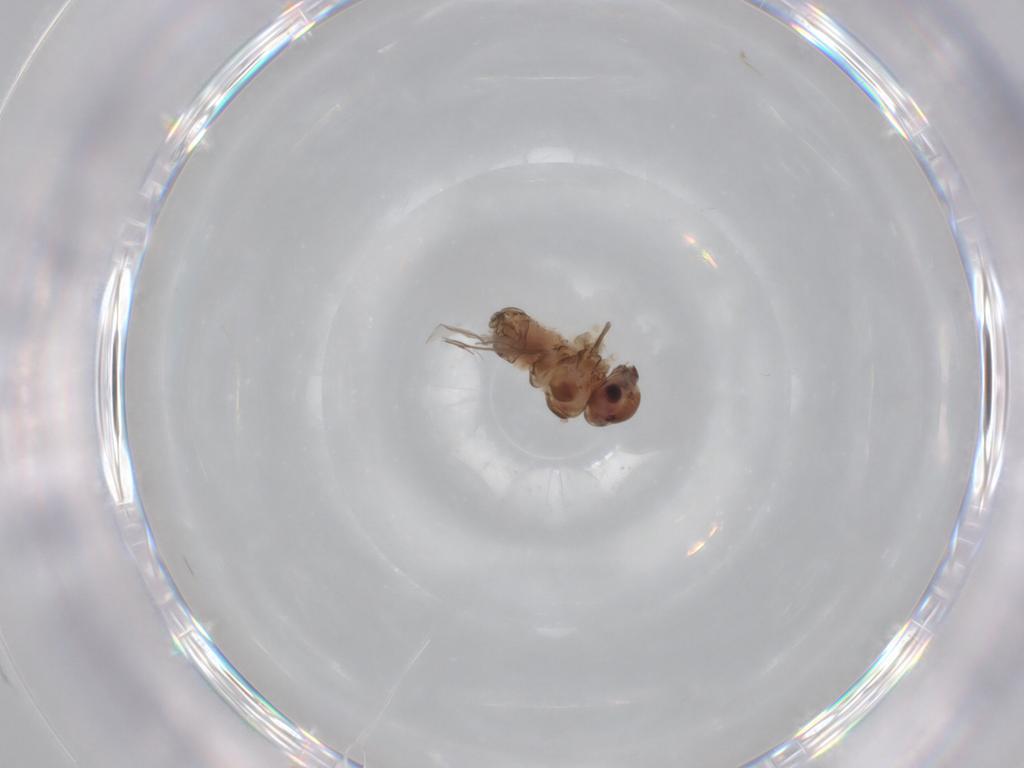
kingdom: Animalia
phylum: Arthropoda
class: Insecta
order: Psocodea
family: Peripsocidae
